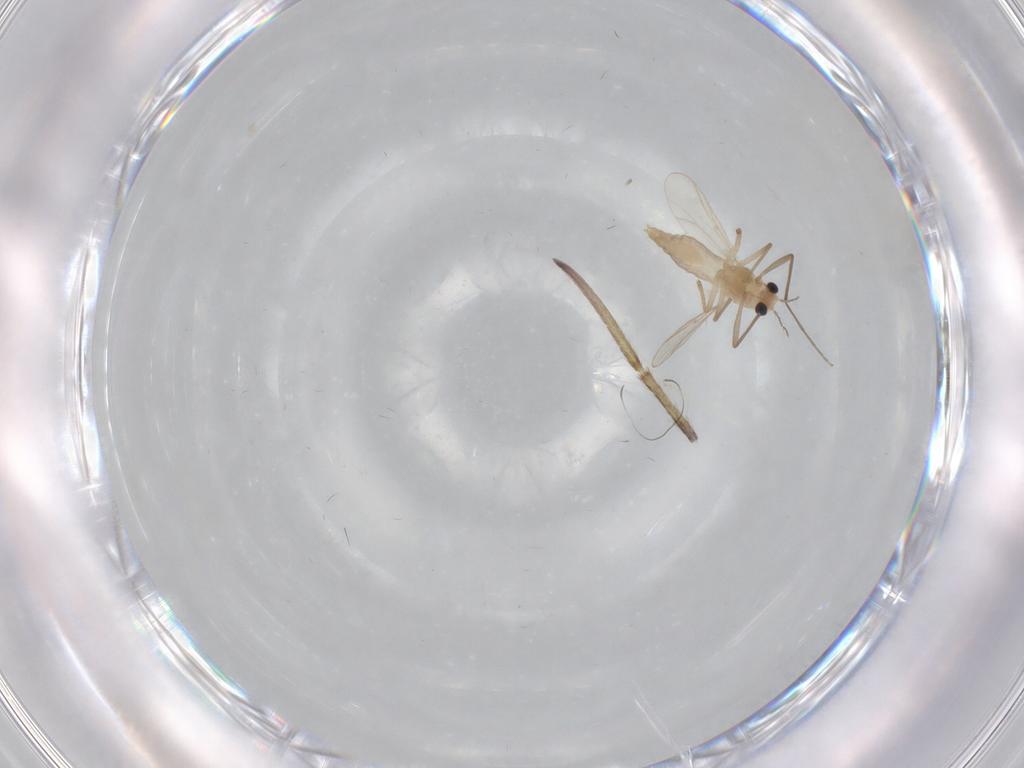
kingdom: Animalia
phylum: Arthropoda
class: Insecta
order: Diptera
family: Chironomidae
